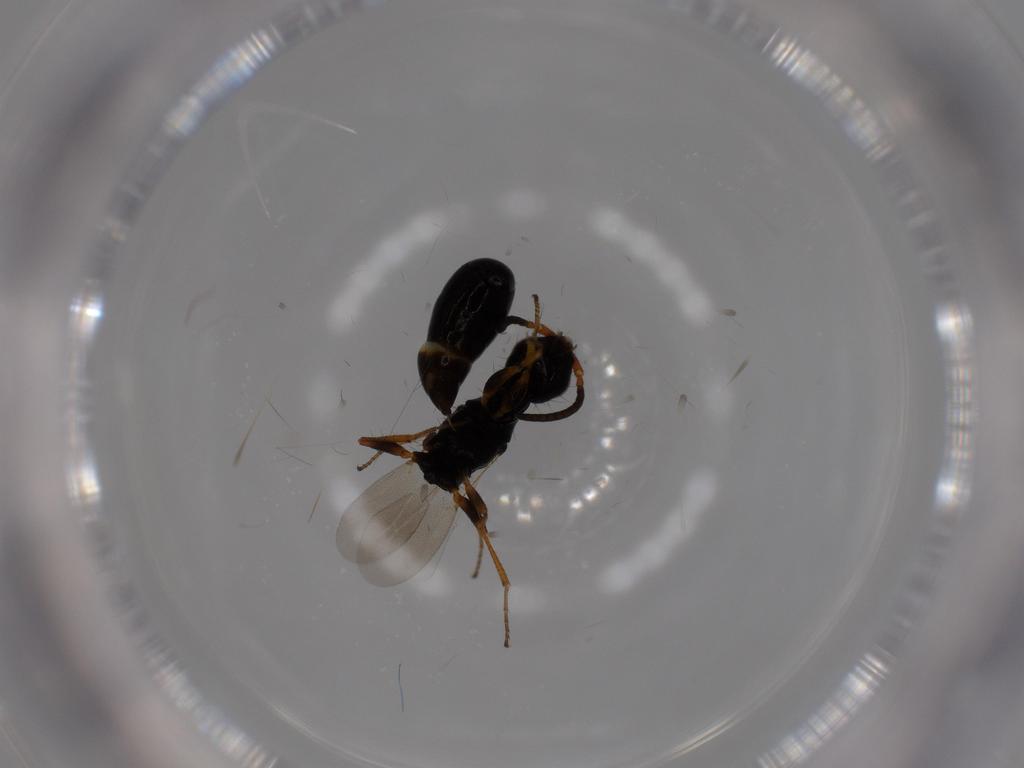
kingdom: Animalia
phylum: Arthropoda
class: Insecta
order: Hymenoptera
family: Bethylidae
